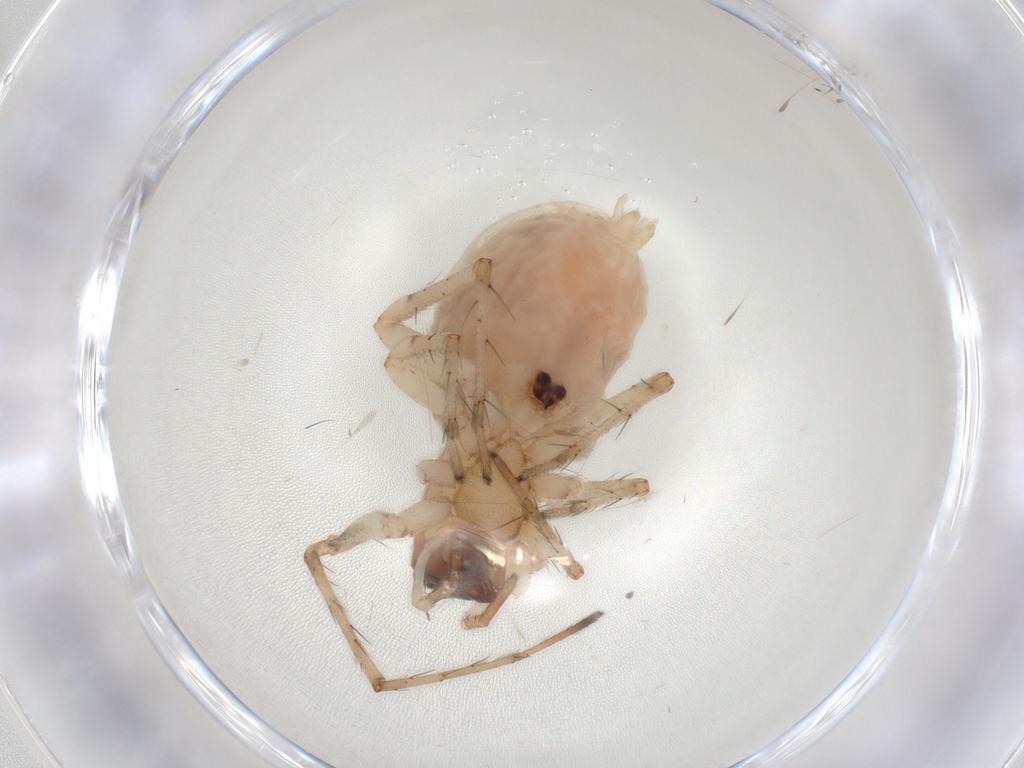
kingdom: Animalia
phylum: Arthropoda
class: Arachnida
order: Araneae
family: Anyphaenidae
